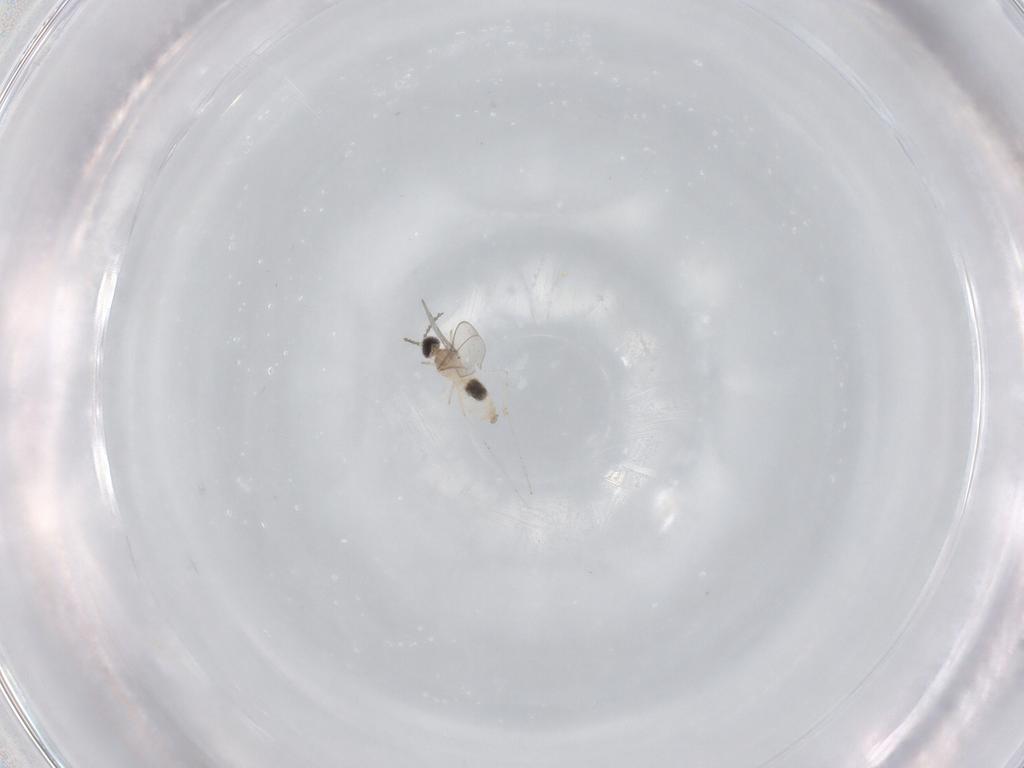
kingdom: Animalia
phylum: Arthropoda
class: Insecta
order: Diptera
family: Cecidomyiidae
